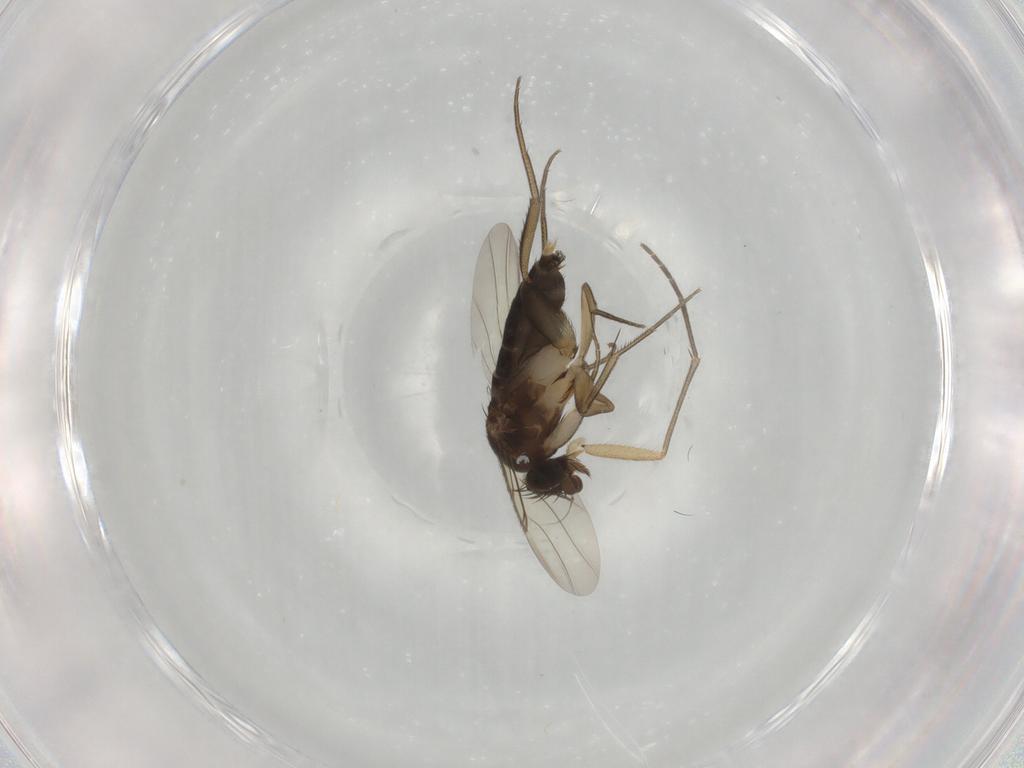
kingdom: Animalia
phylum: Arthropoda
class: Insecta
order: Diptera
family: Phoridae
